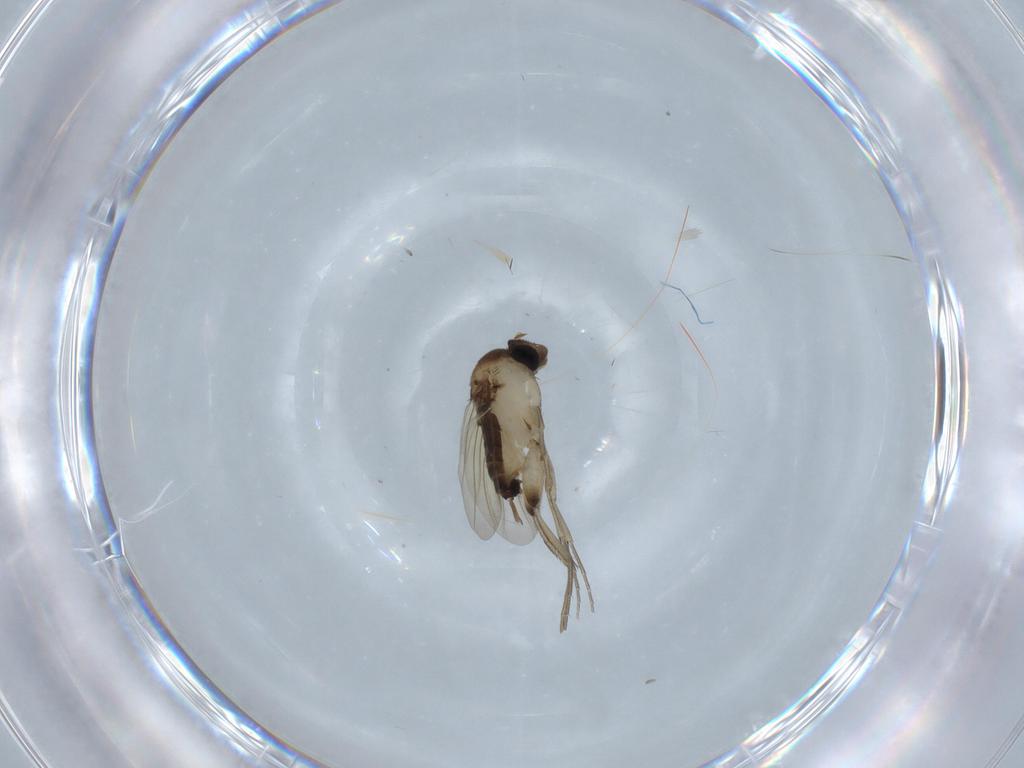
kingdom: Animalia
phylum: Arthropoda
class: Insecta
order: Diptera
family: Phoridae
